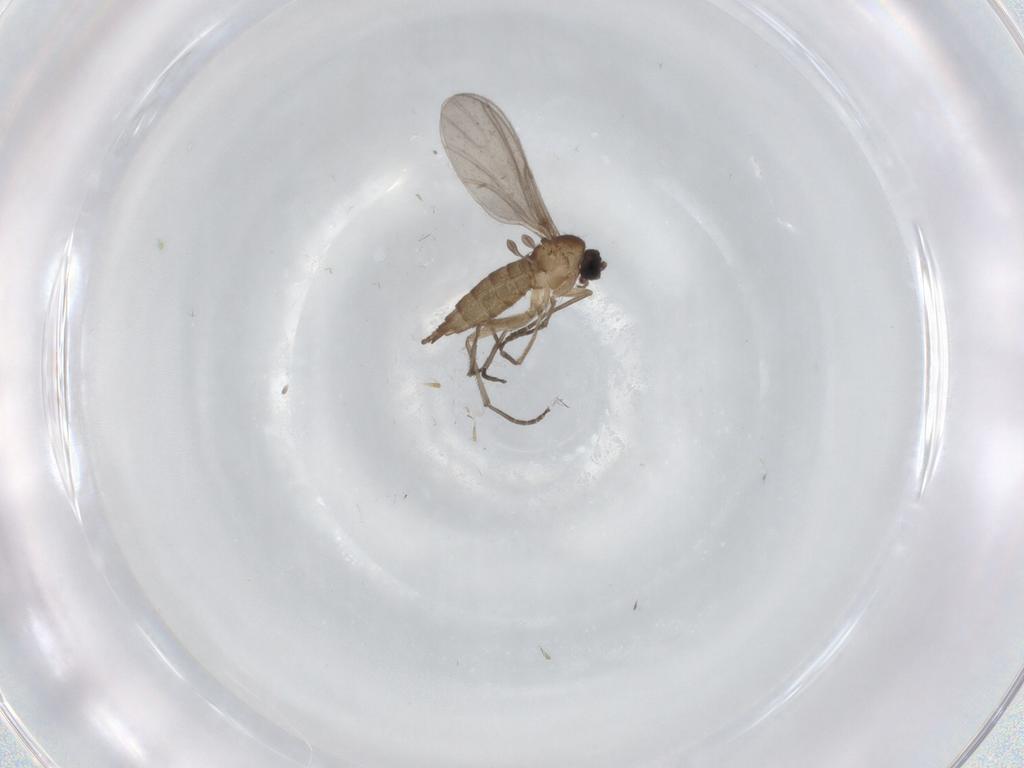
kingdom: Animalia
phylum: Arthropoda
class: Insecta
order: Diptera
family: Sciaridae
